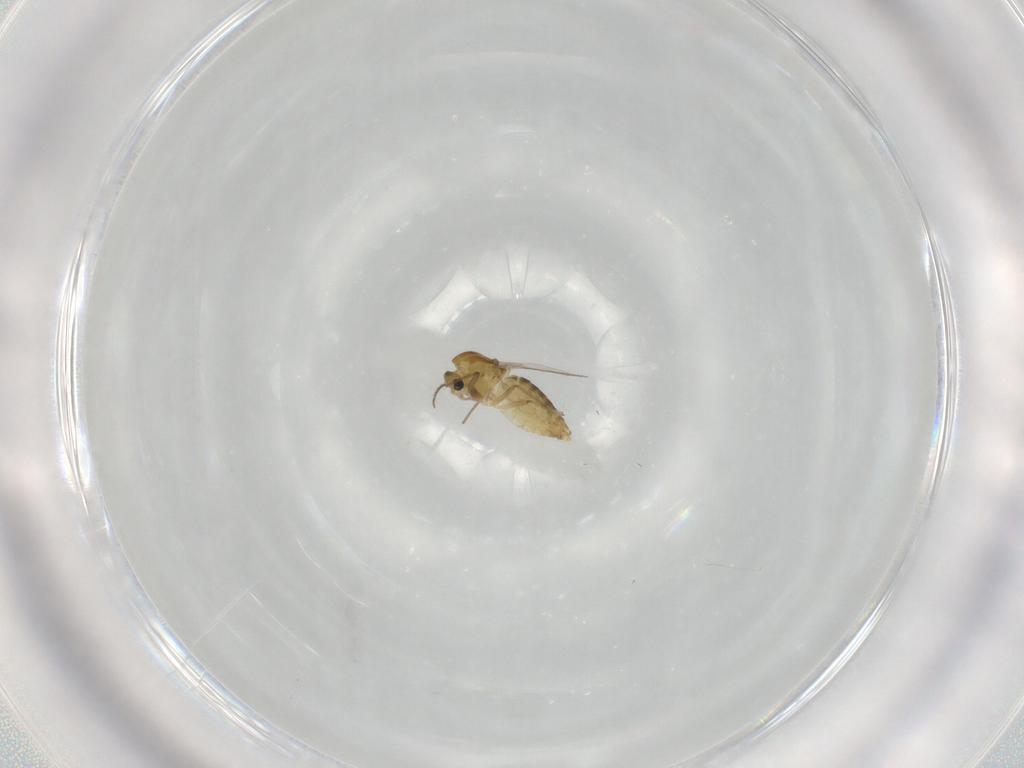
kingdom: Animalia
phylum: Arthropoda
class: Insecta
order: Diptera
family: Chironomidae
